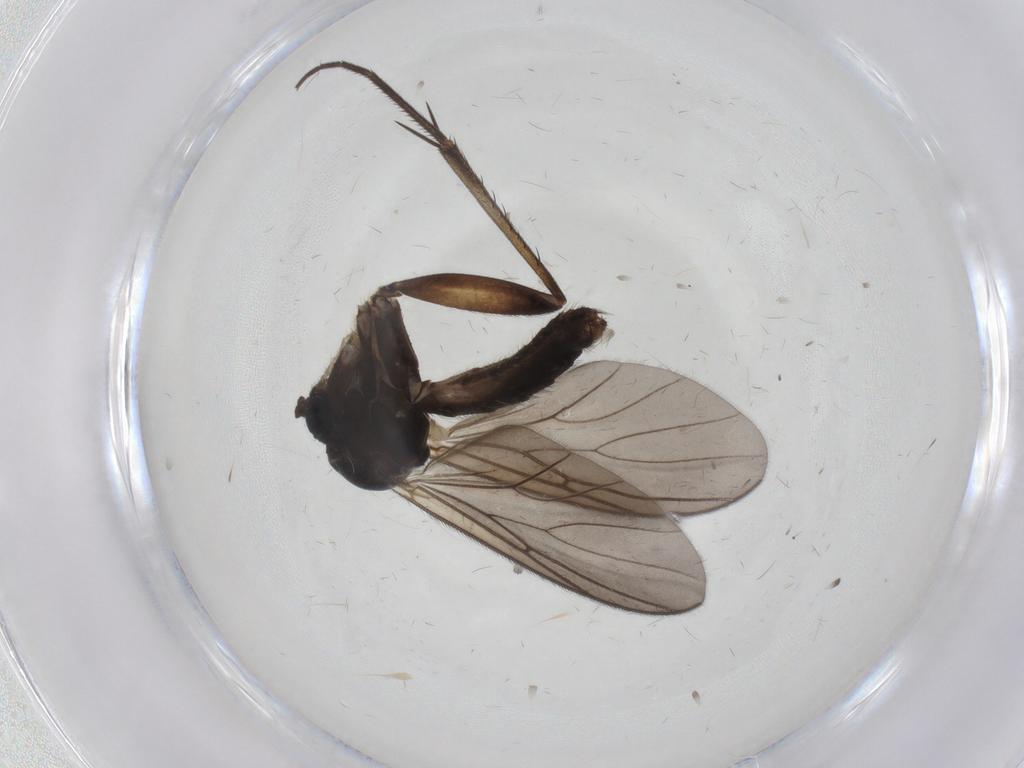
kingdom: Animalia
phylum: Arthropoda
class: Insecta
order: Diptera
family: Mycetophilidae
